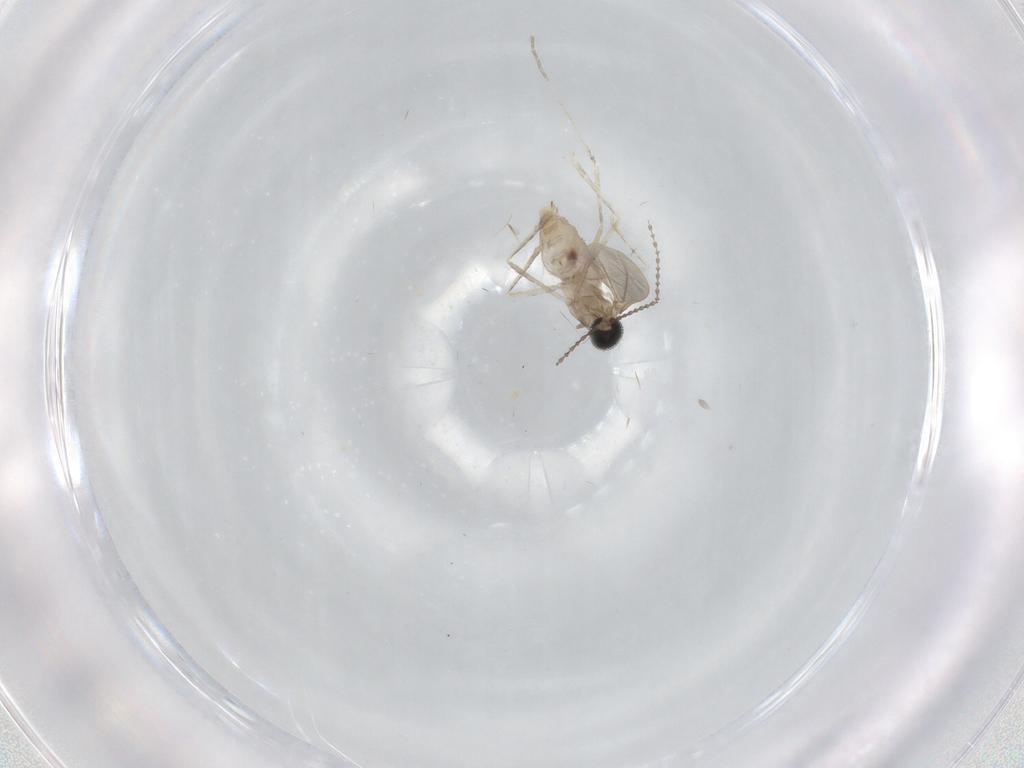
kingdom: Animalia
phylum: Arthropoda
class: Insecta
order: Diptera
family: Cecidomyiidae
